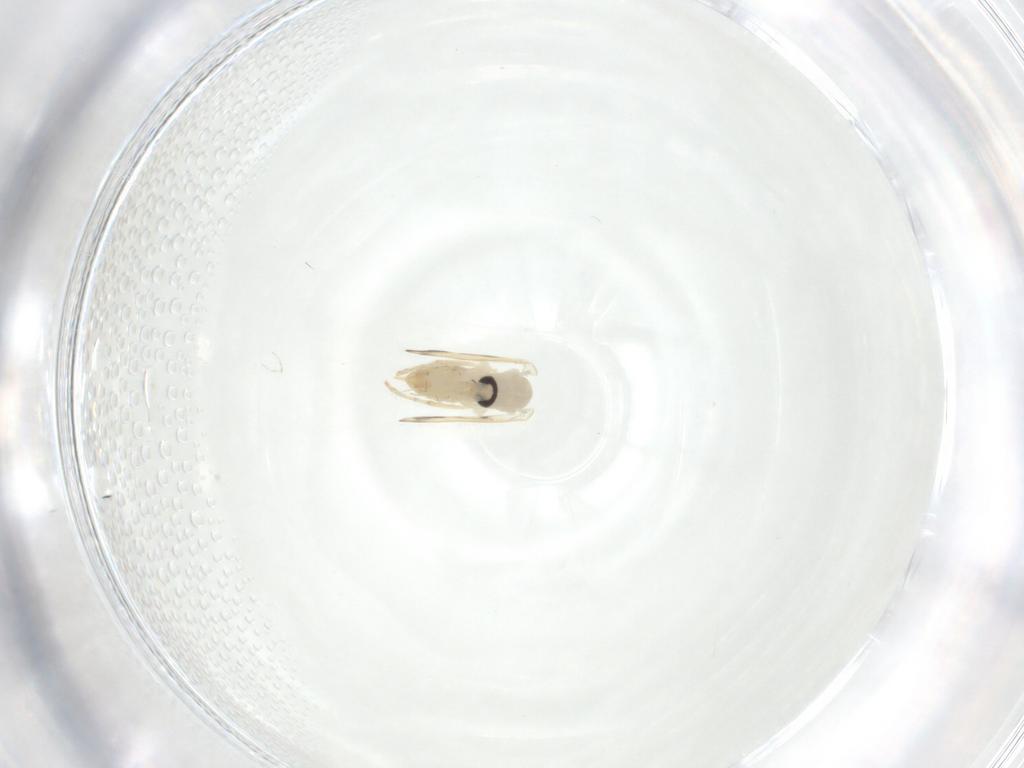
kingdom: Animalia
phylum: Arthropoda
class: Insecta
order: Diptera
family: Psychodidae
